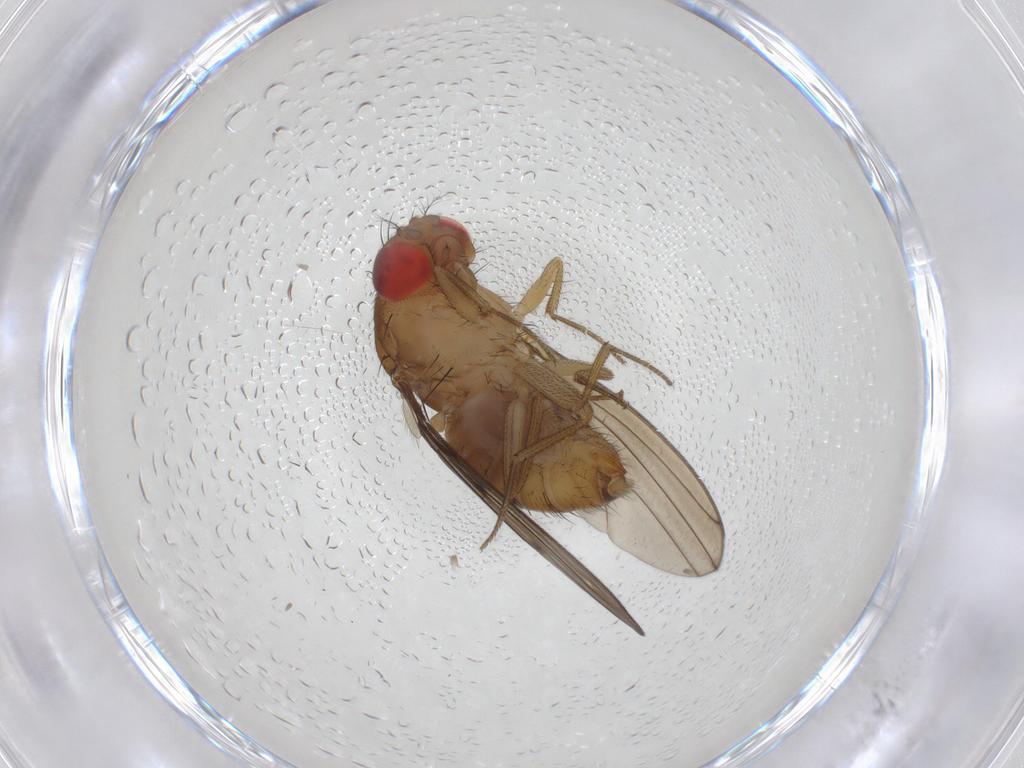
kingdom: Animalia
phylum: Arthropoda
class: Insecta
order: Diptera
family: Drosophilidae
